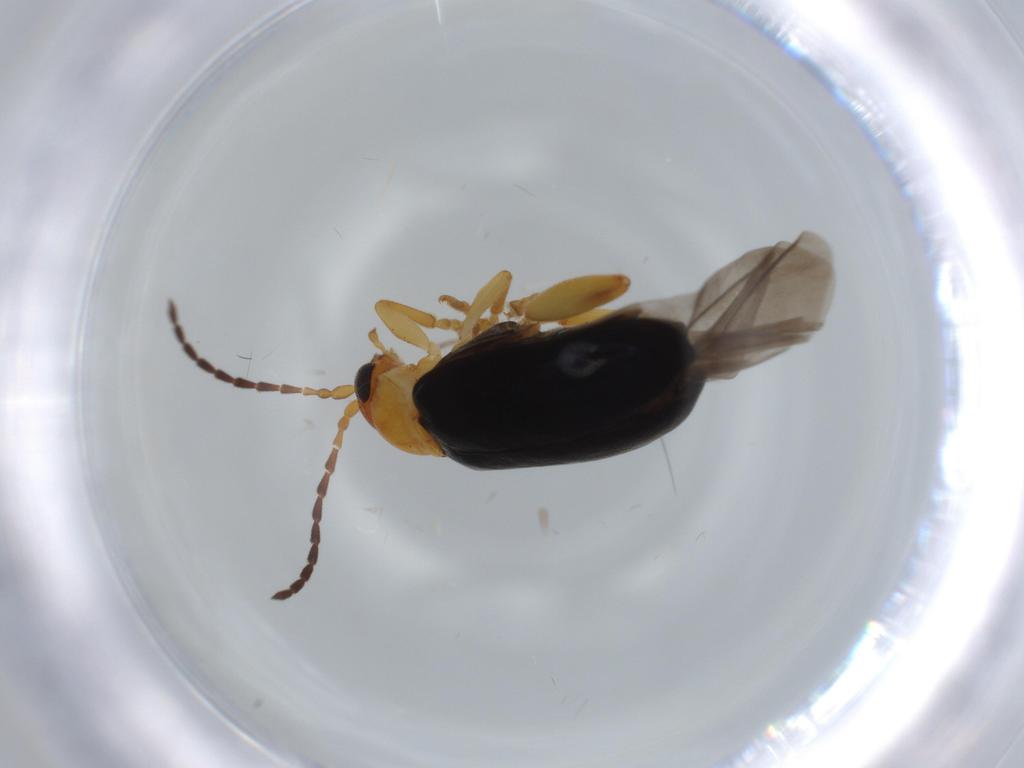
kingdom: Animalia
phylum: Arthropoda
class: Insecta
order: Coleoptera
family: Chrysomelidae
